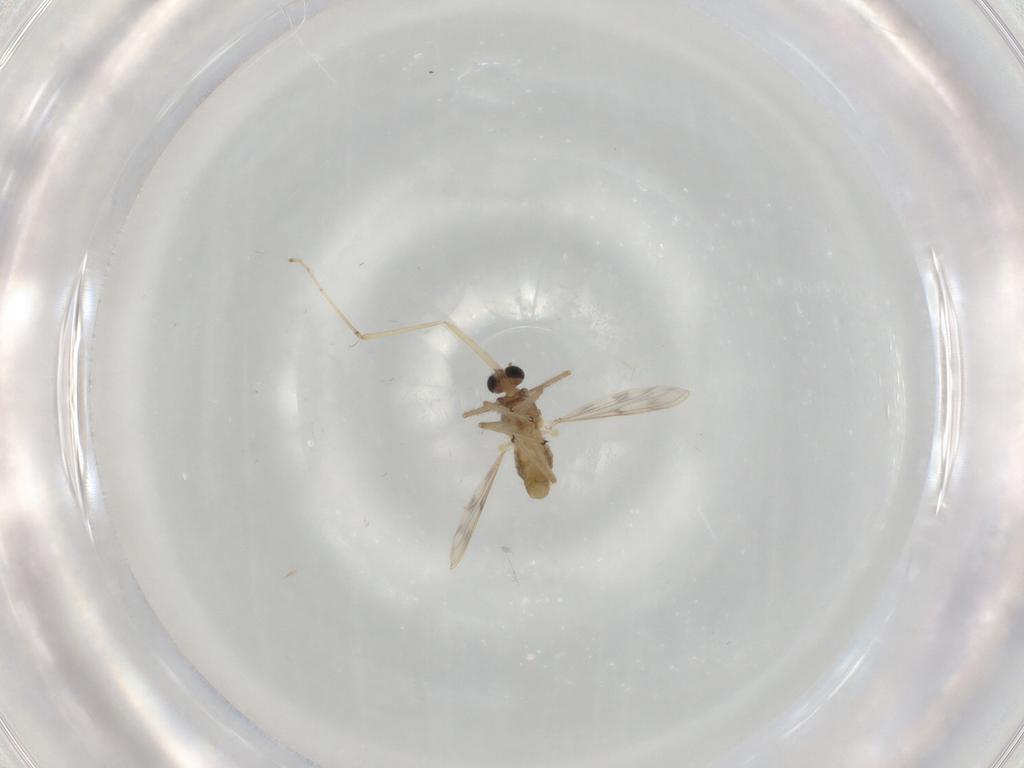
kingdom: Animalia
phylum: Arthropoda
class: Insecta
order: Diptera
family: Chironomidae
